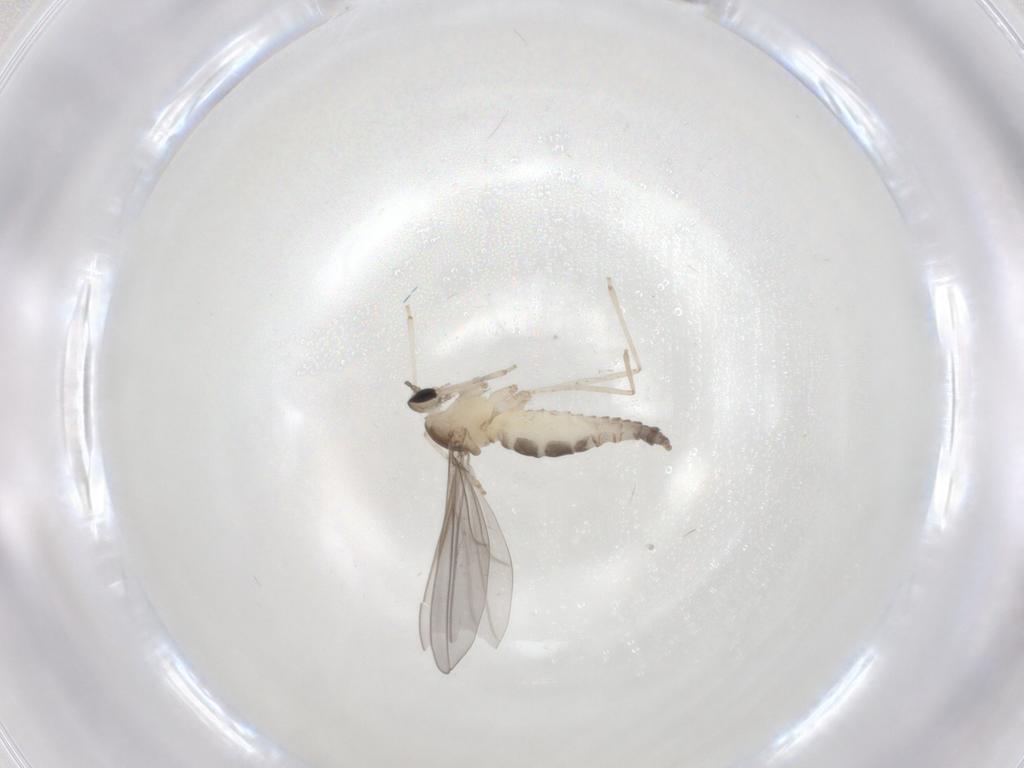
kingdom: Animalia
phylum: Arthropoda
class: Insecta
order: Diptera
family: Cecidomyiidae
